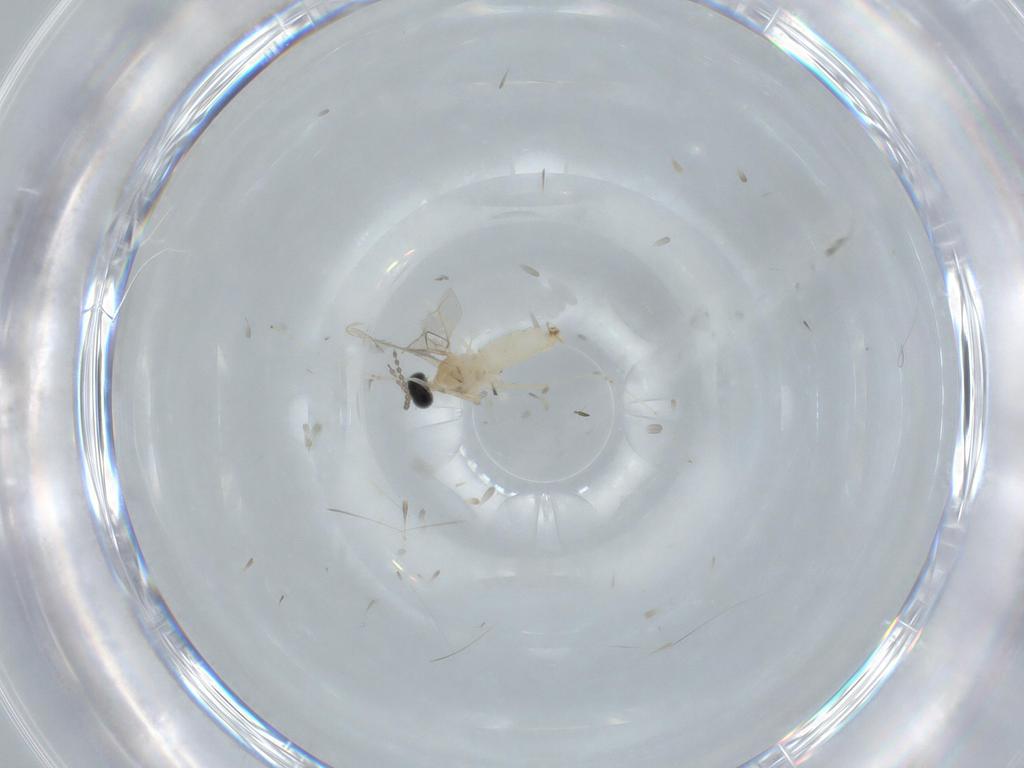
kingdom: Animalia
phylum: Arthropoda
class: Insecta
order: Diptera
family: Cecidomyiidae
